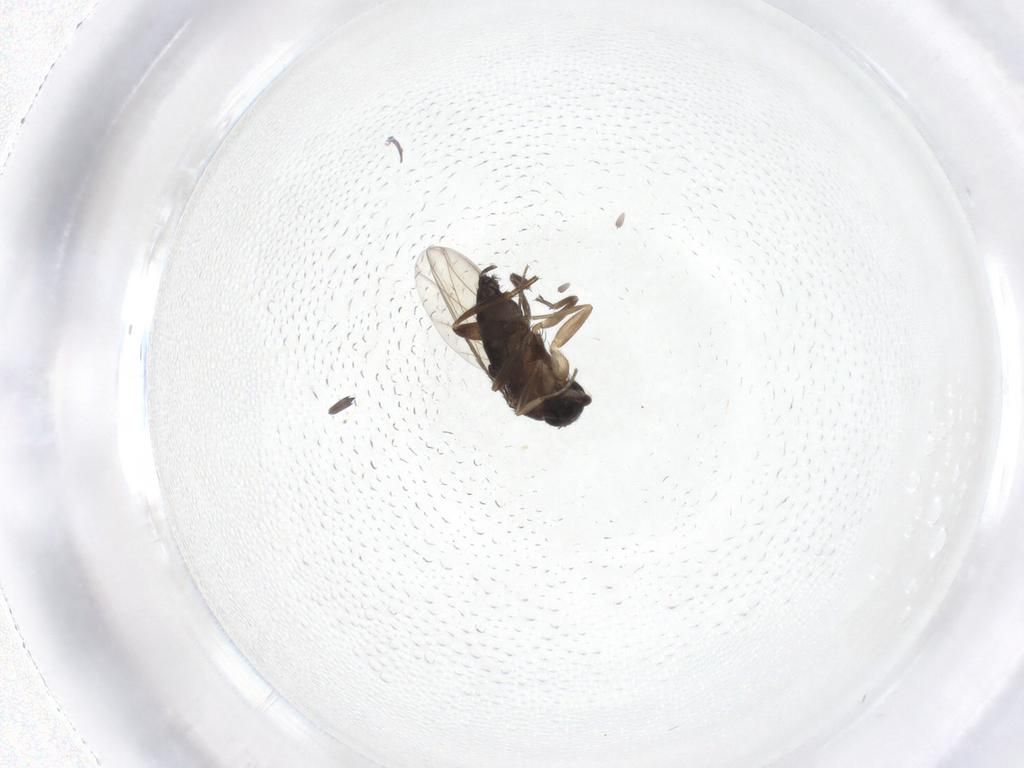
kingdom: Animalia
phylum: Arthropoda
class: Insecta
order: Diptera
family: Phoridae
